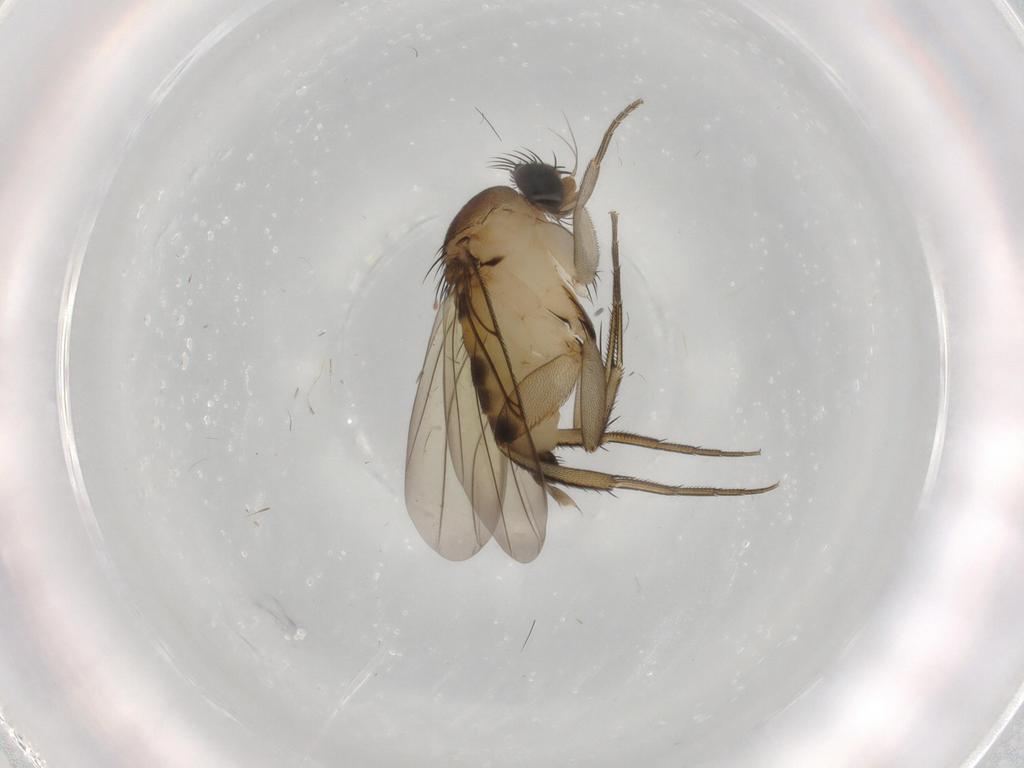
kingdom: Animalia
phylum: Arthropoda
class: Insecta
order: Diptera
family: Phoridae
